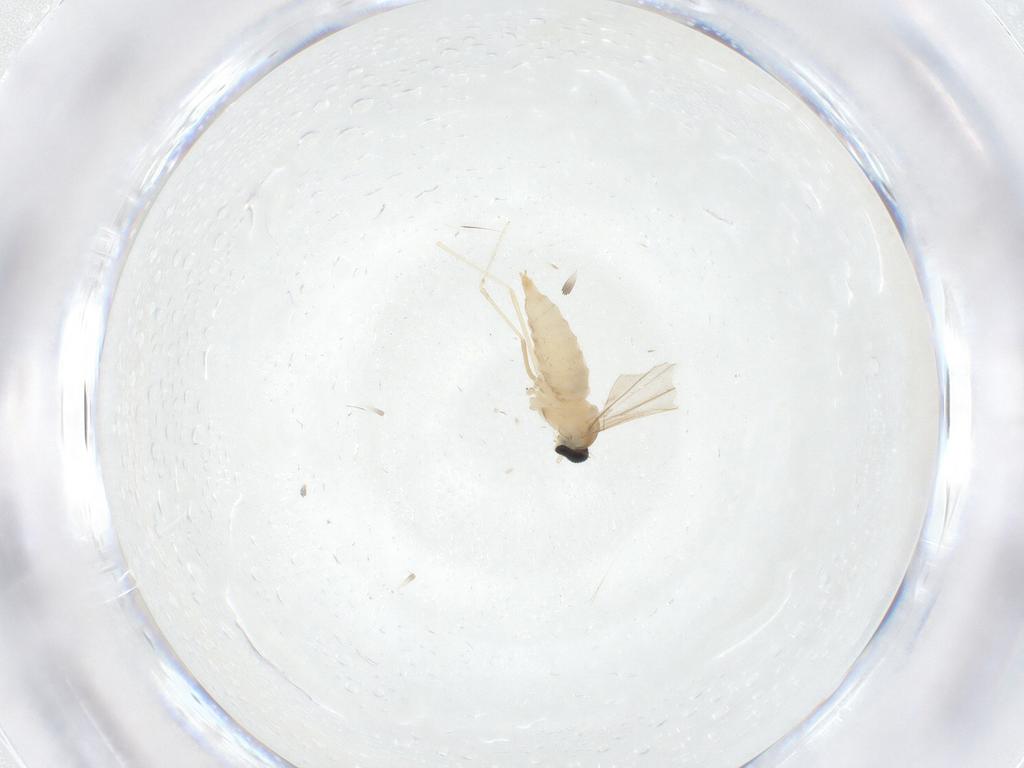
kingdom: Animalia
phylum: Arthropoda
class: Insecta
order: Diptera
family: Cecidomyiidae
